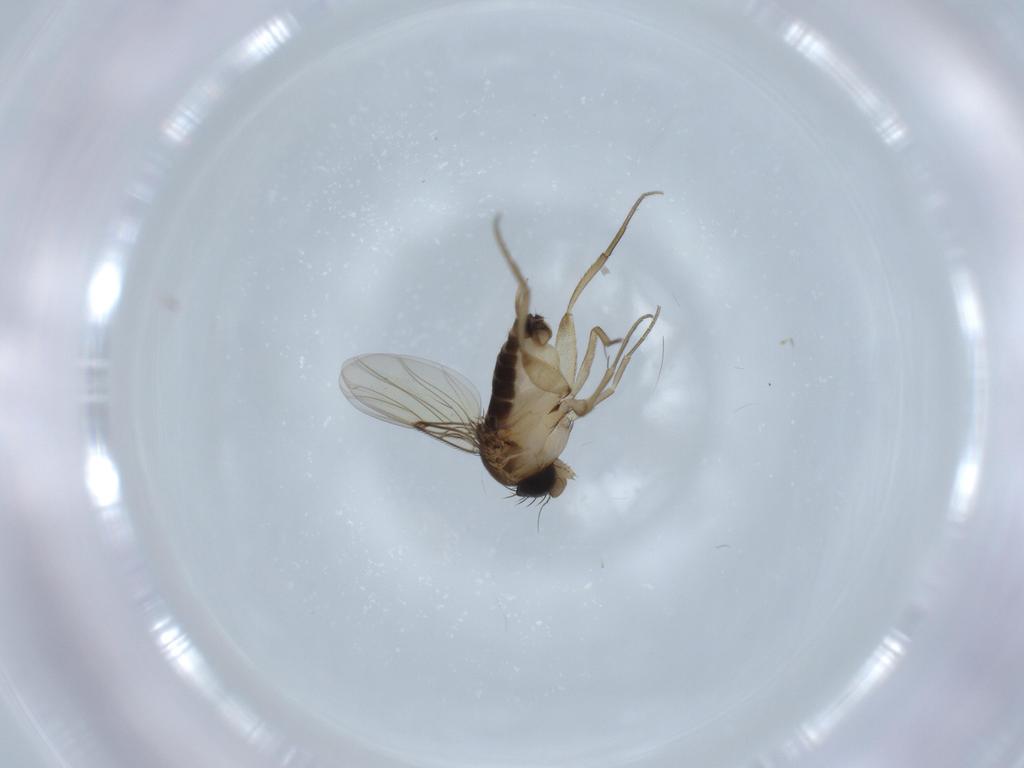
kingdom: Animalia
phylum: Arthropoda
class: Insecta
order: Diptera
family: Phoridae
